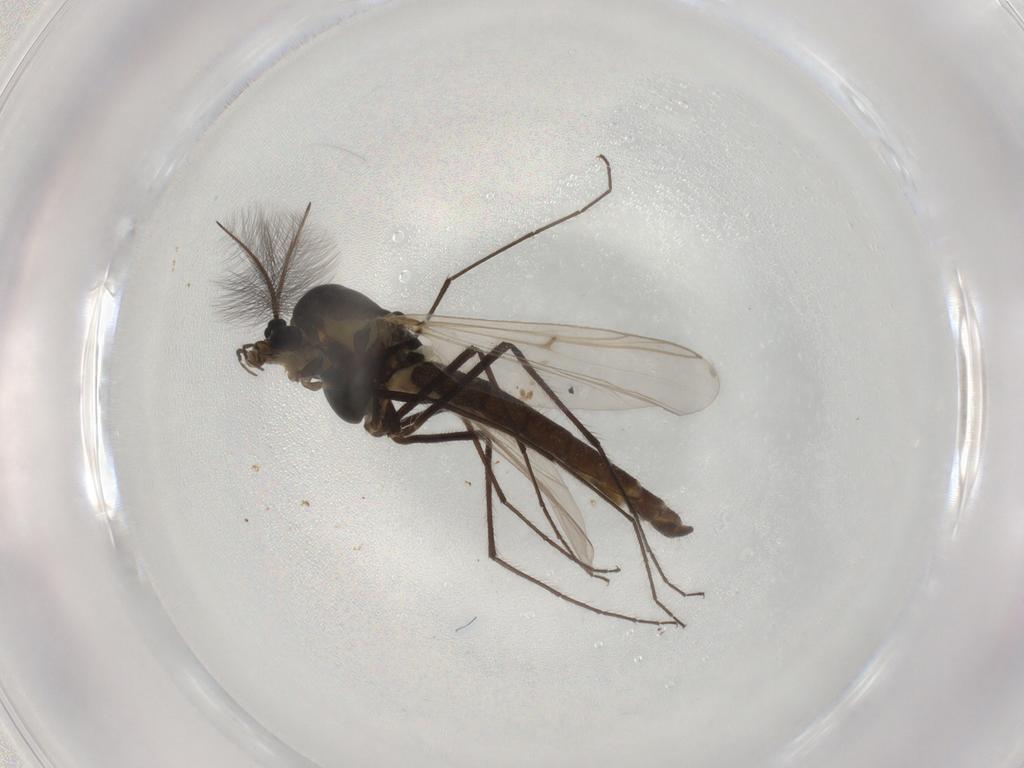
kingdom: Animalia
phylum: Arthropoda
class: Insecta
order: Diptera
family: Chironomidae
